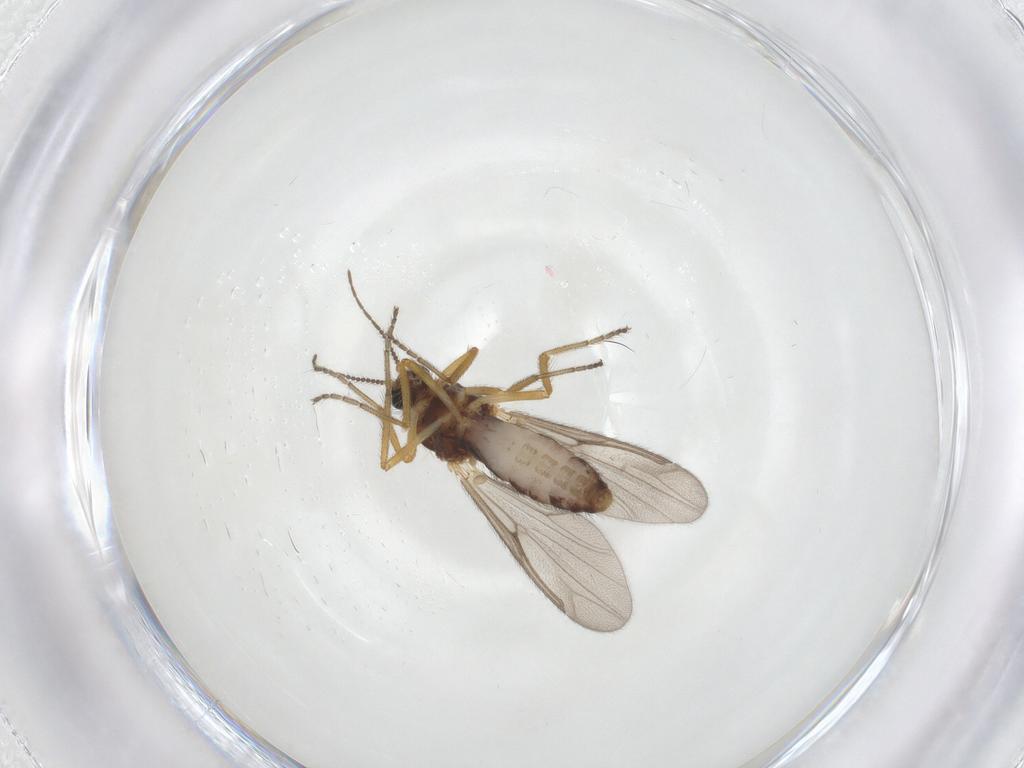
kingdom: Animalia
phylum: Arthropoda
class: Insecta
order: Diptera
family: Ceratopogonidae
